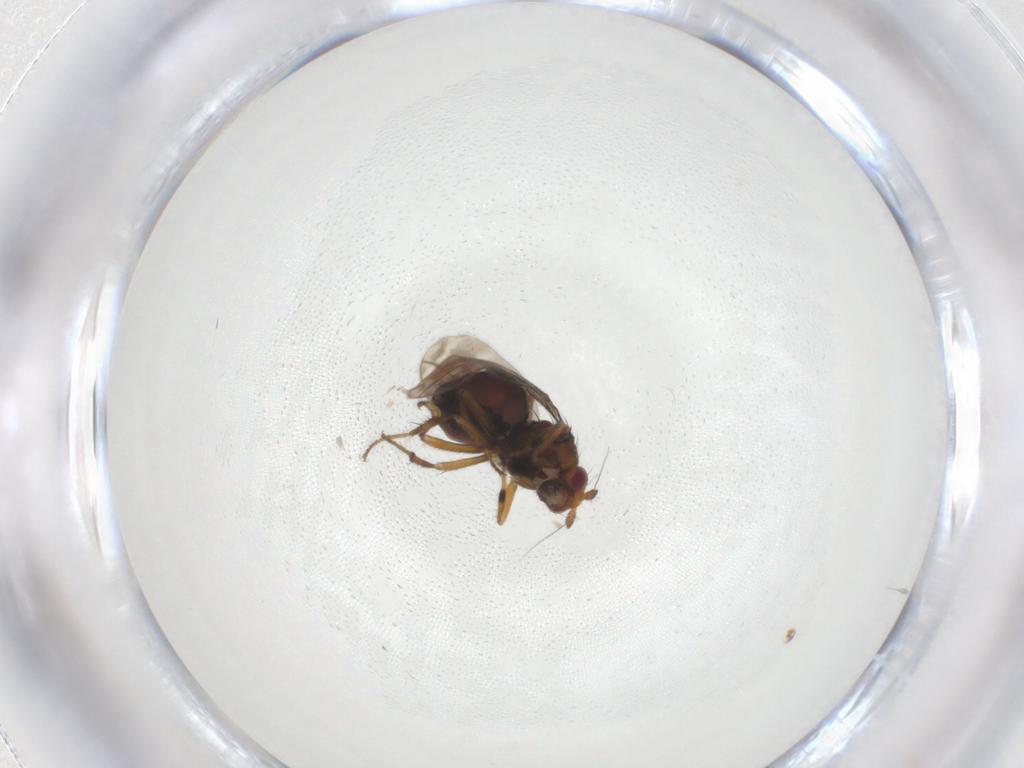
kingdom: Animalia
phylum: Arthropoda
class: Insecta
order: Diptera
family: Sphaeroceridae
